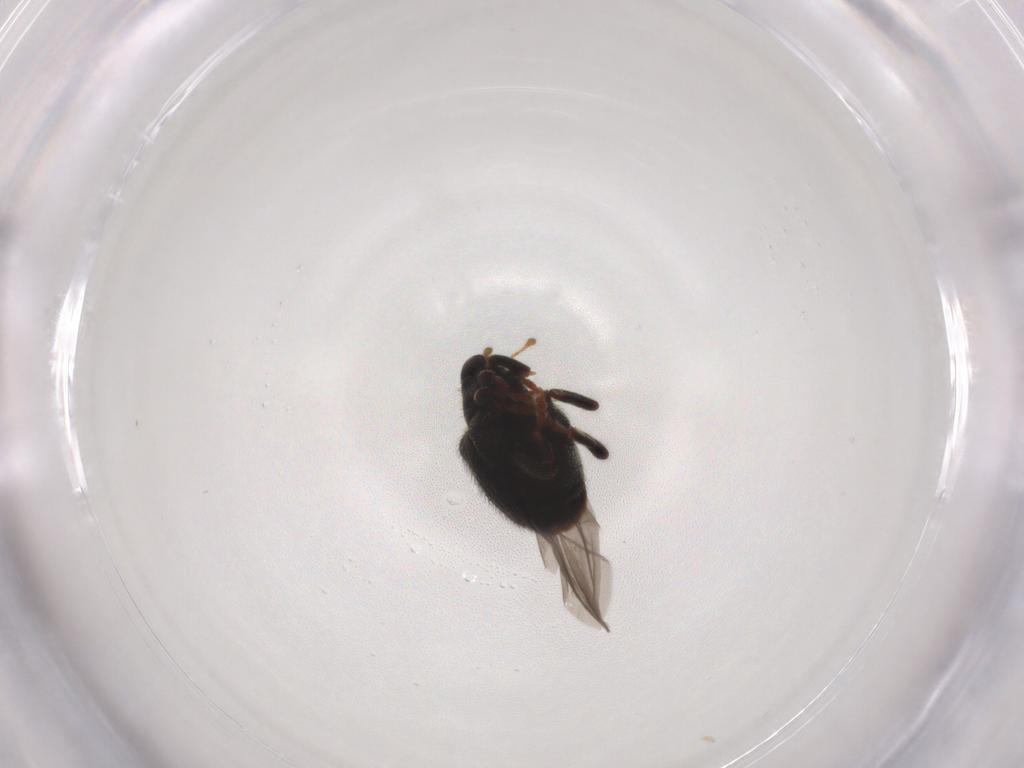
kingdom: Animalia
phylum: Arthropoda
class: Insecta
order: Coleoptera
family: Curculionidae
